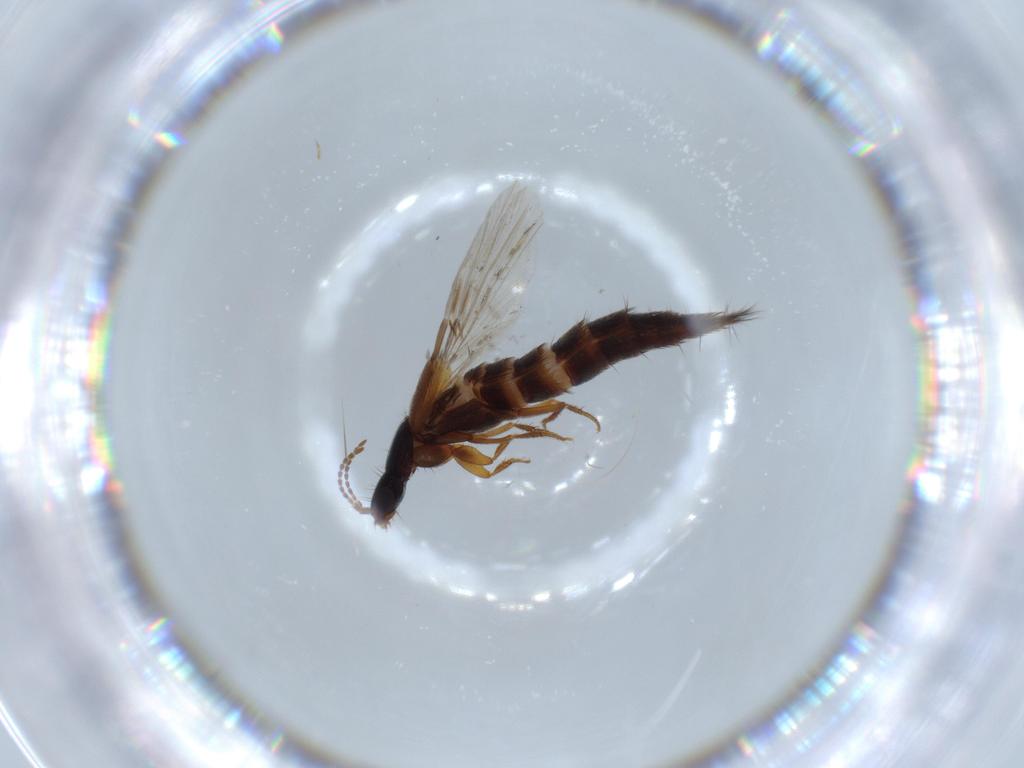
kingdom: Animalia
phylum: Arthropoda
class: Insecta
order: Coleoptera
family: Staphylinidae
